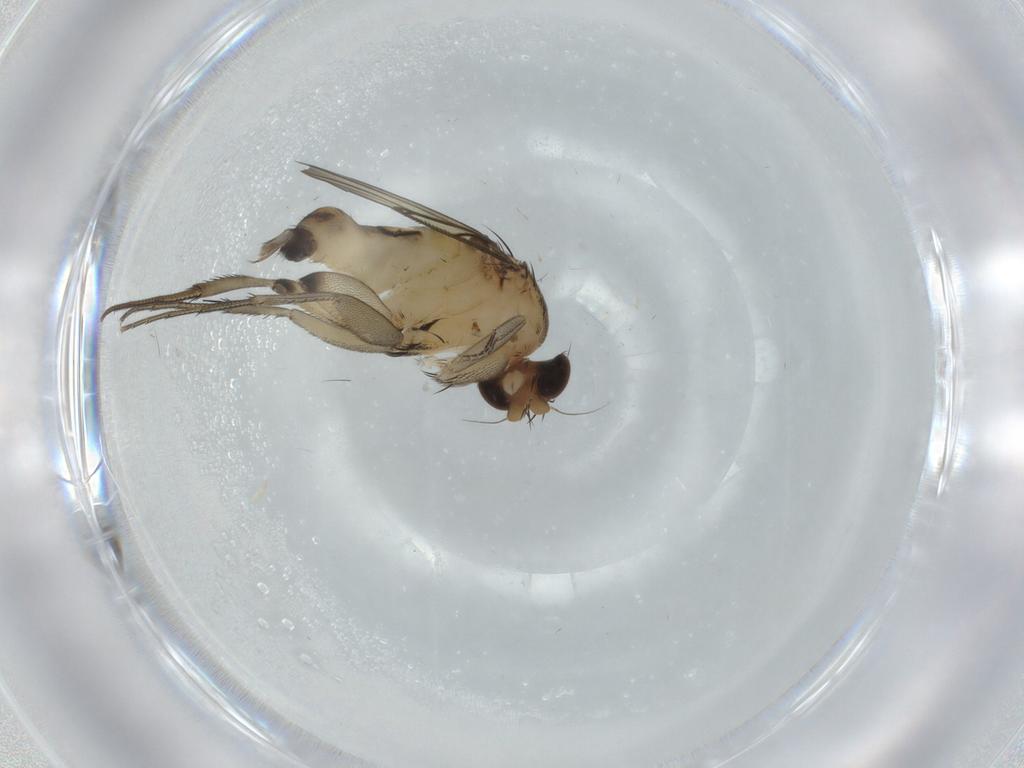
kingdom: Animalia
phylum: Arthropoda
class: Insecta
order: Diptera
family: Phoridae
